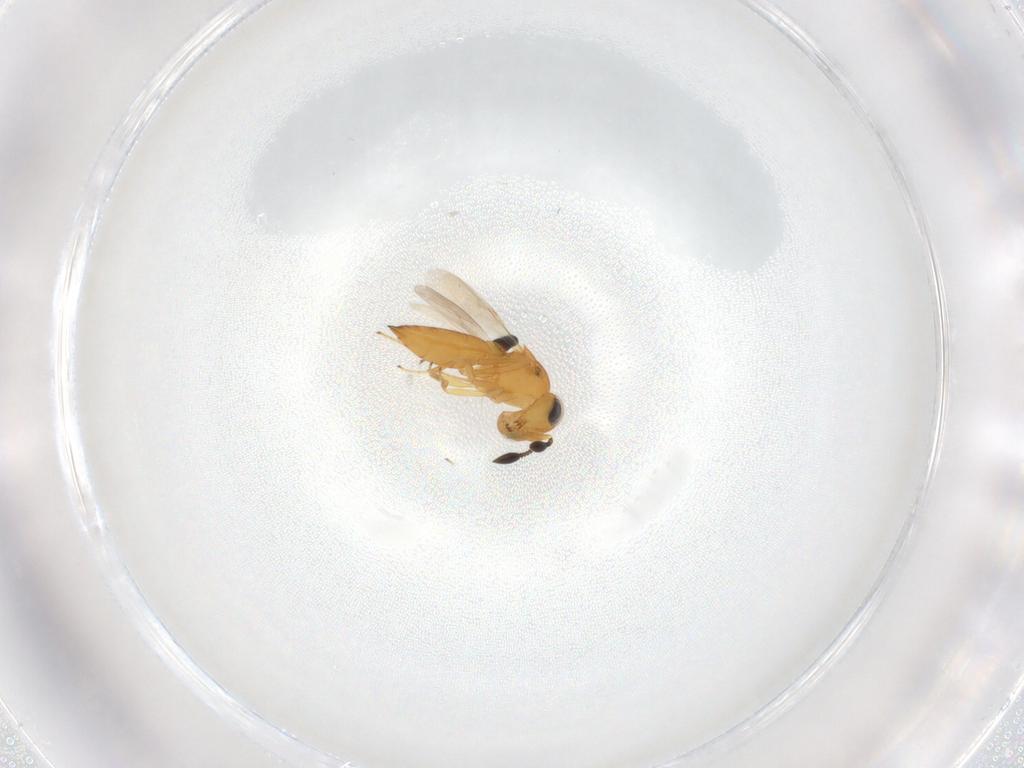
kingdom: Animalia
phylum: Arthropoda
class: Insecta
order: Hymenoptera
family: Scelionidae
